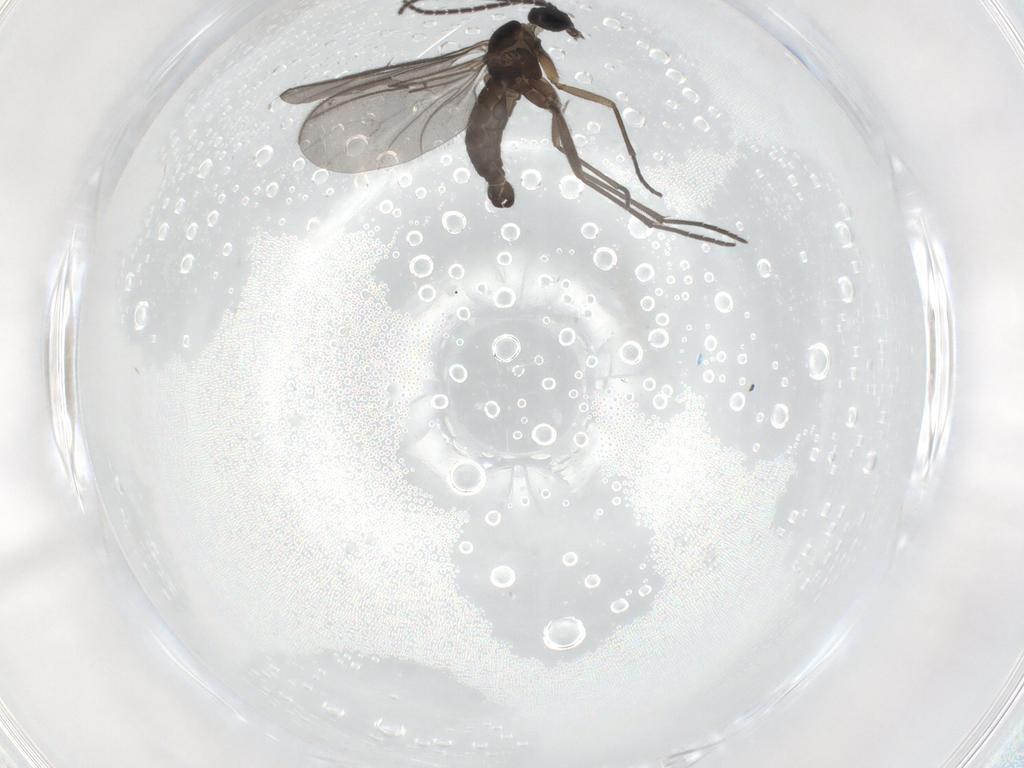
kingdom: Animalia
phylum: Arthropoda
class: Insecta
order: Diptera
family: Sciaridae
